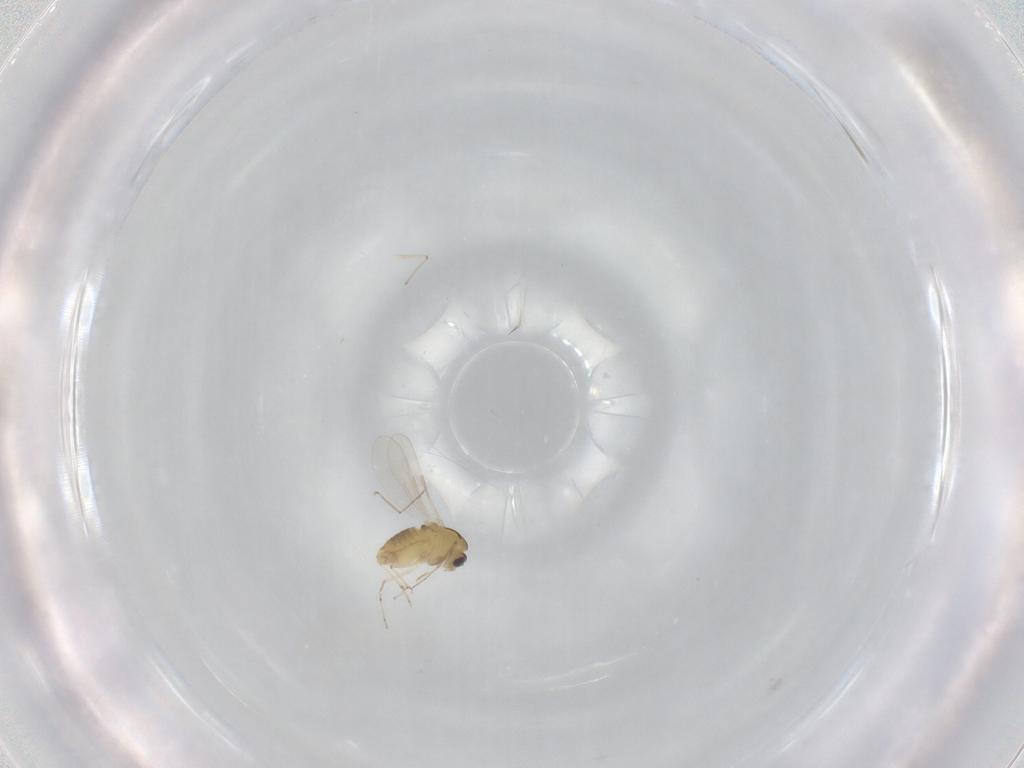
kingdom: Animalia
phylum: Arthropoda
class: Insecta
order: Diptera
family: Chironomidae
